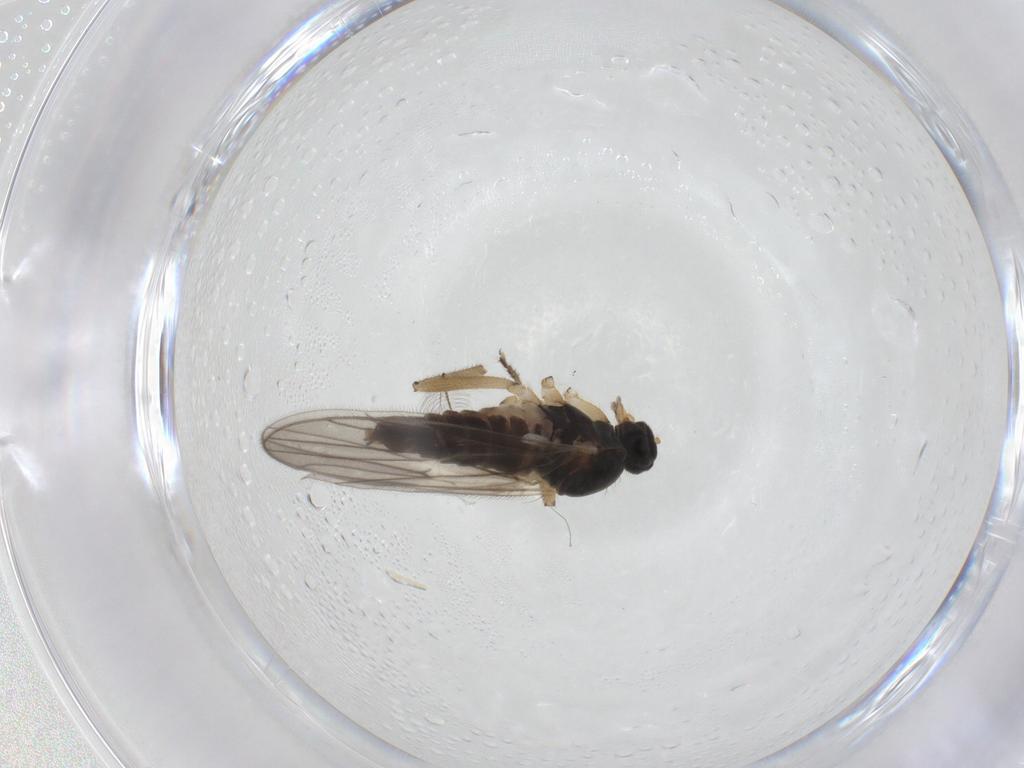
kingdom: Animalia
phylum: Arthropoda
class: Insecta
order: Diptera
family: Hybotidae
